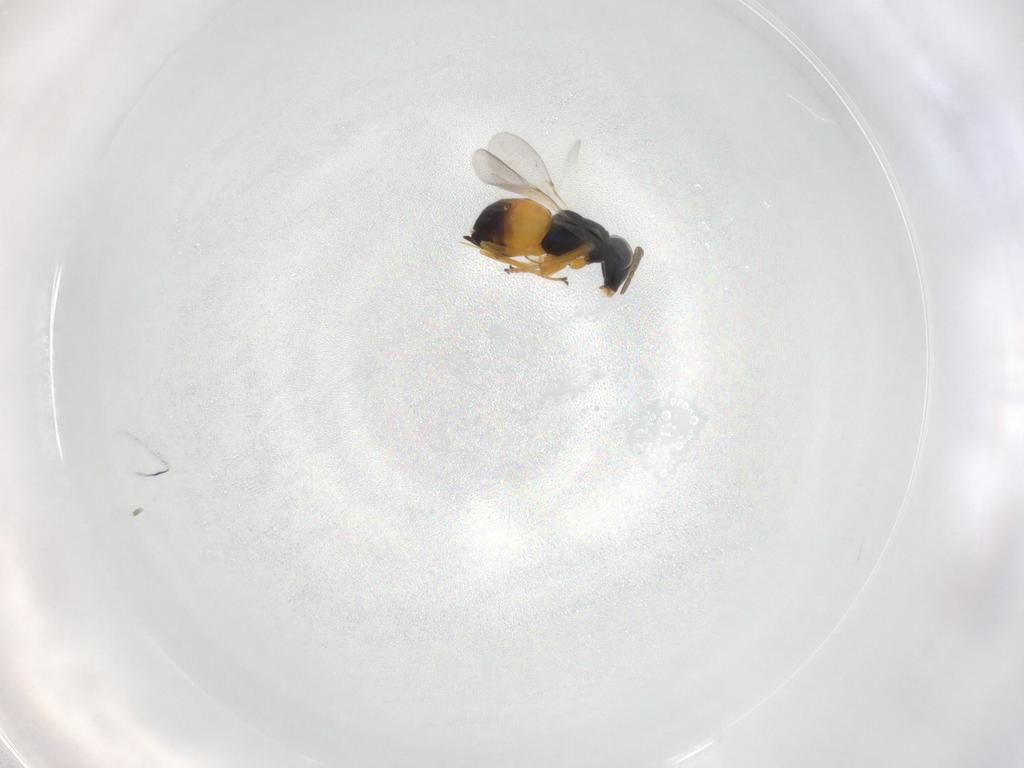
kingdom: Animalia
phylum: Arthropoda
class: Insecta
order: Hymenoptera
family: Encyrtidae
